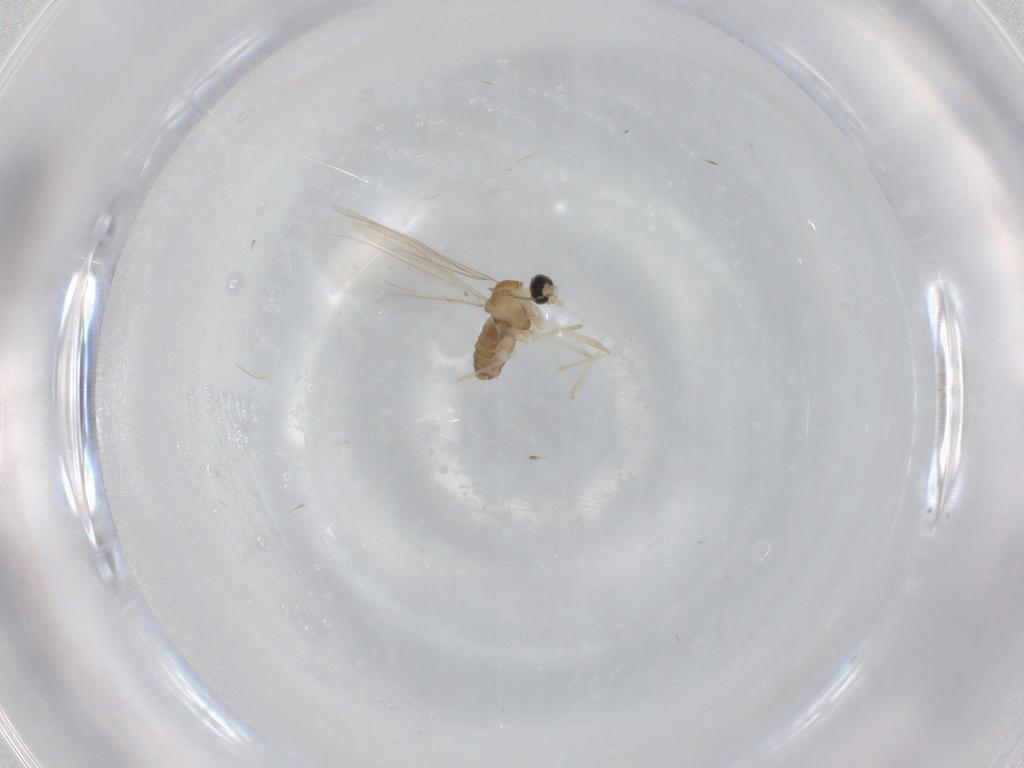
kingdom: Animalia
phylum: Arthropoda
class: Insecta
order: Diptera
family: Cecidomyiidae
